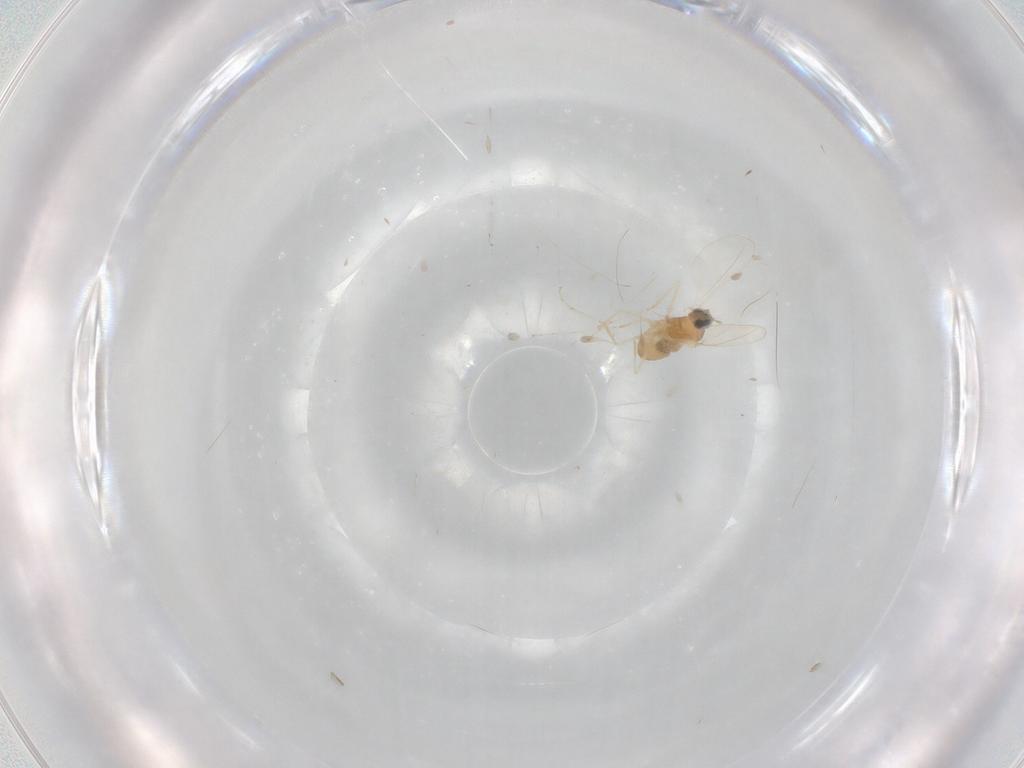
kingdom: Animalia
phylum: Arthropoda
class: Insecta
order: Diptera
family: Cecidomyiidae
